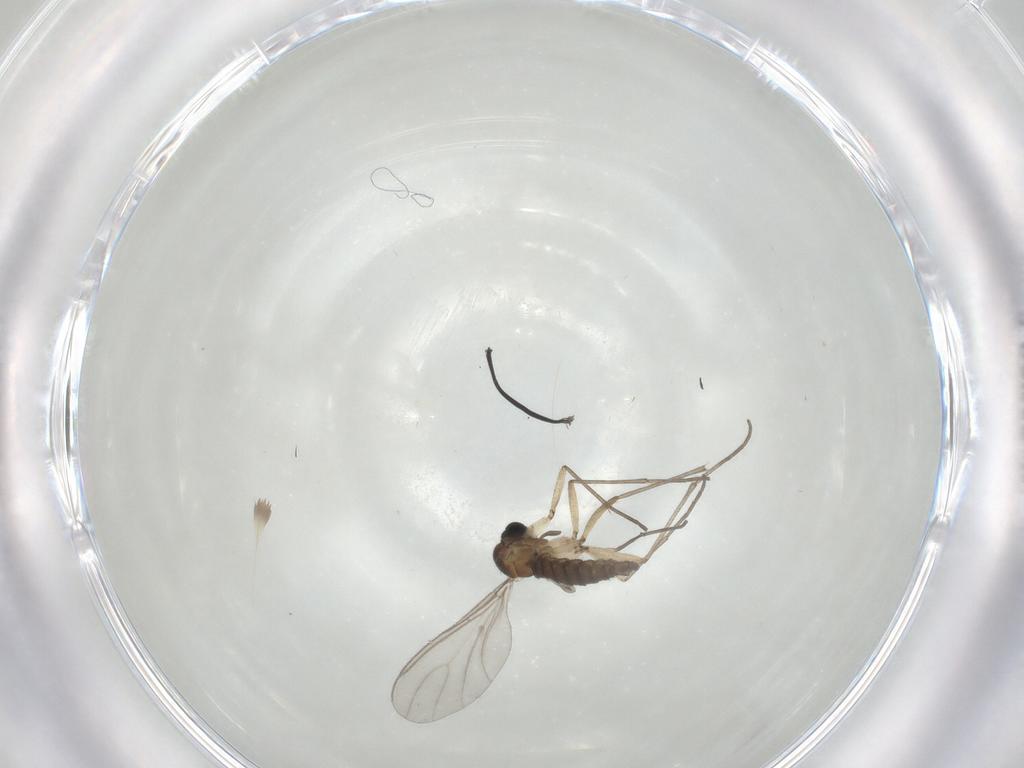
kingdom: Animalia
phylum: Arthropoda
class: Insecta
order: Diptera
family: Sciaridae
